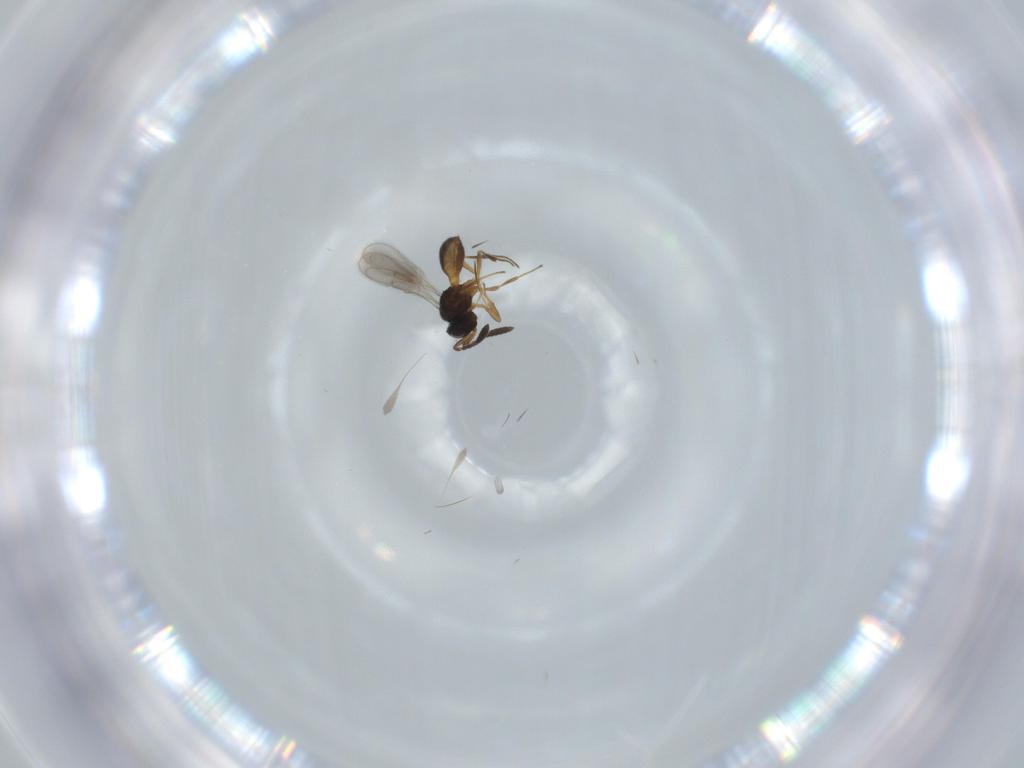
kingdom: Animalia
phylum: Arthropoda
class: Insecta
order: Hymenoptera
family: Scelionidae
